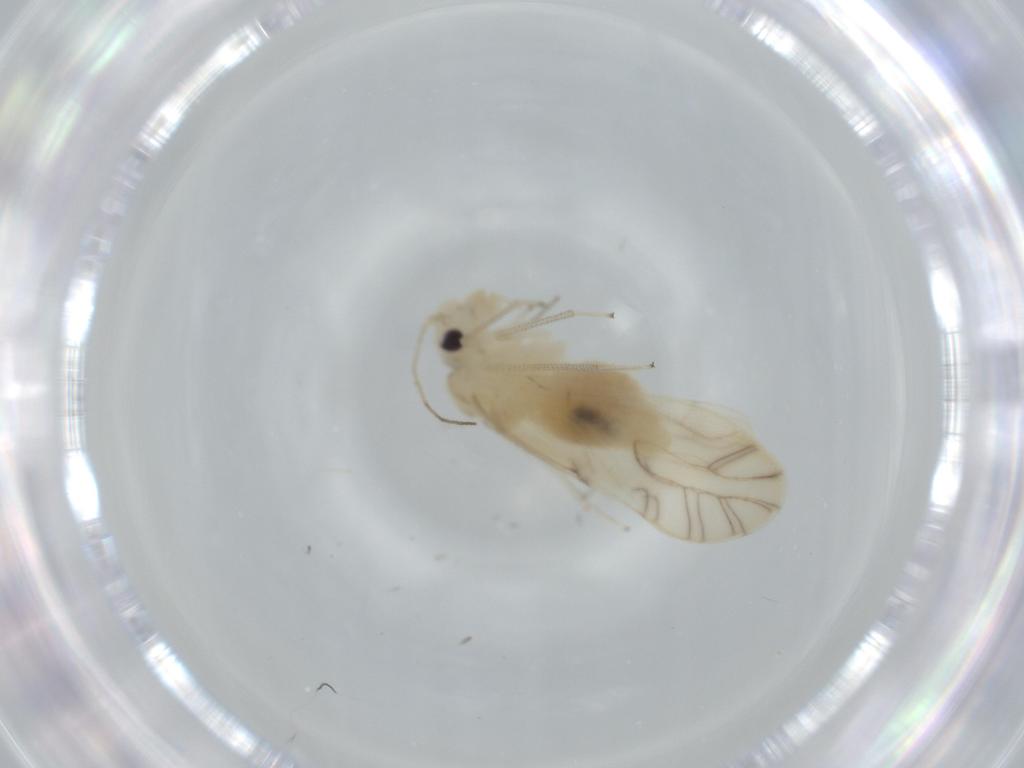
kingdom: Animalia
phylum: Arthropoda
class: Insecta
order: Psocodea
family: Caeciliusidae
